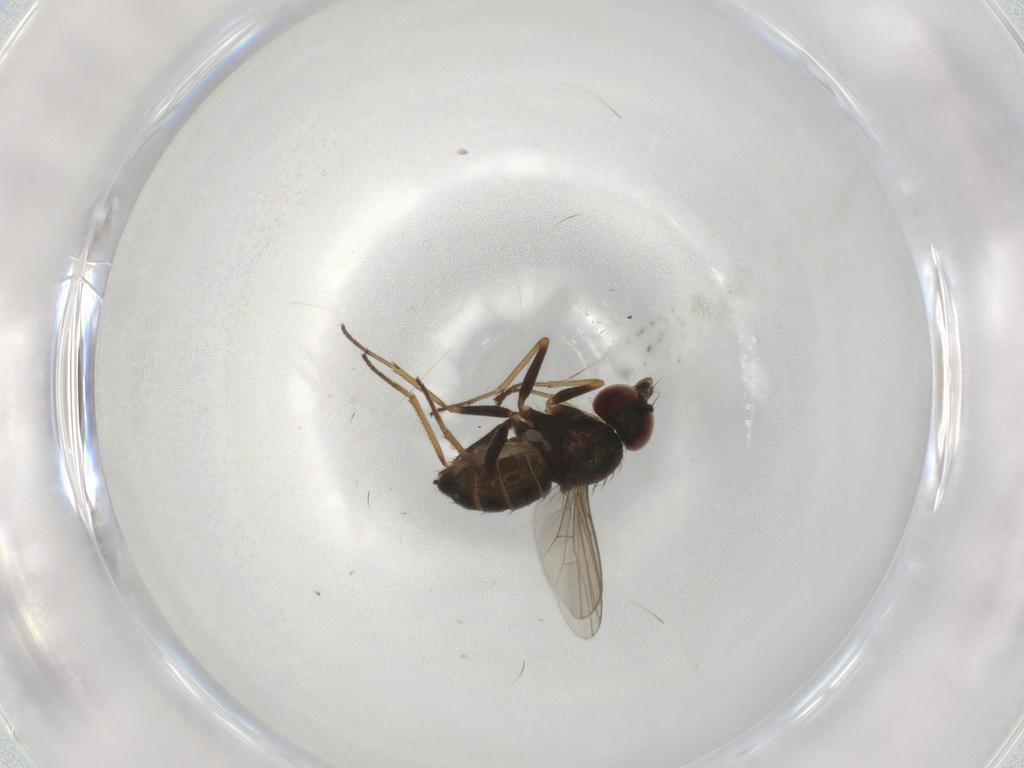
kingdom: Animalia
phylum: Arthropoda
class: Insecta
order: Diptera
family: Dolichopodidae
